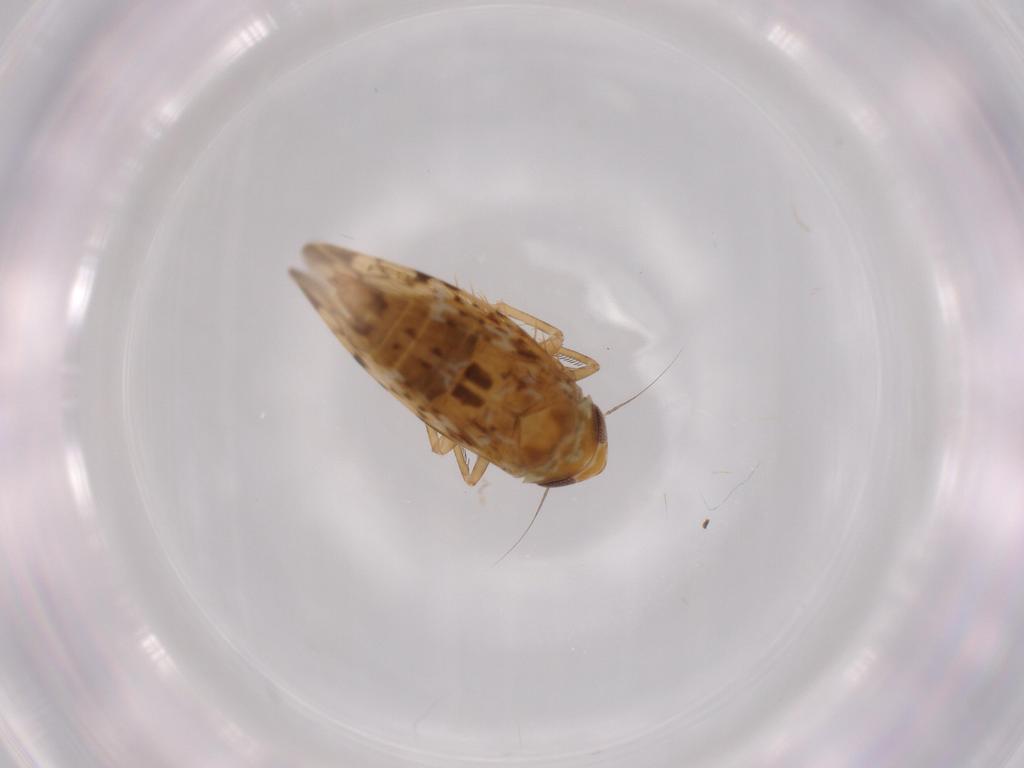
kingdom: Animalia
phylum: Arthropoda
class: Insecta
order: Hemiptera
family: Cicadellidae
